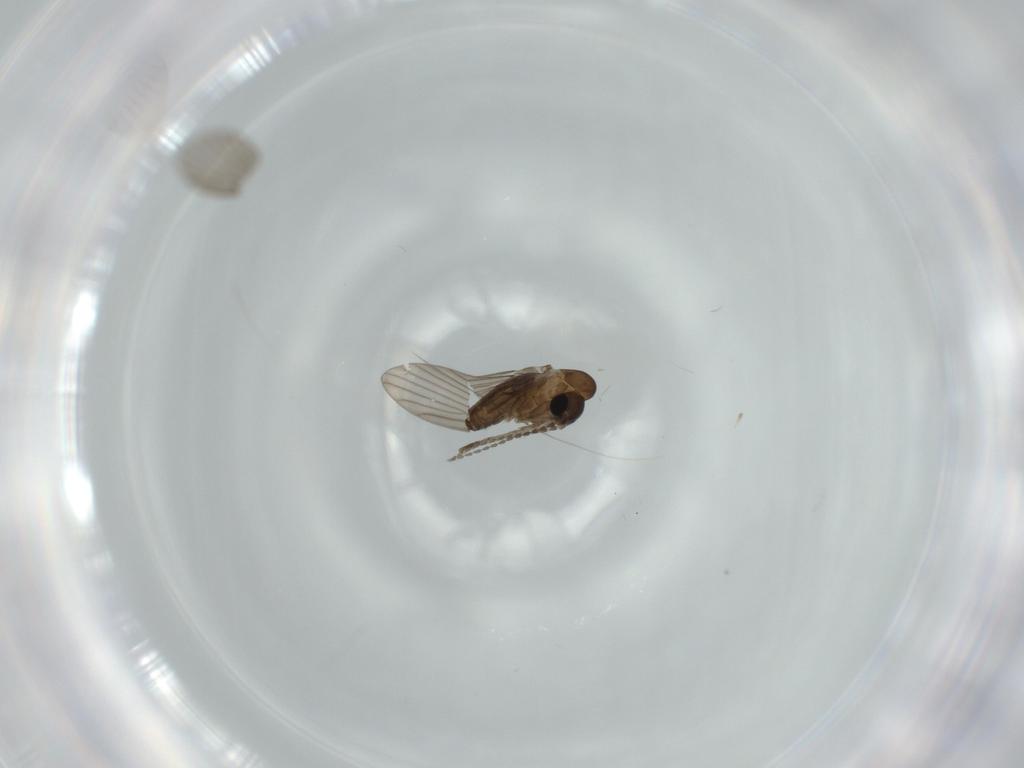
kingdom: Animalia
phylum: Arthropoda
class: Insecta
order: Diptera
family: Psychodidae
